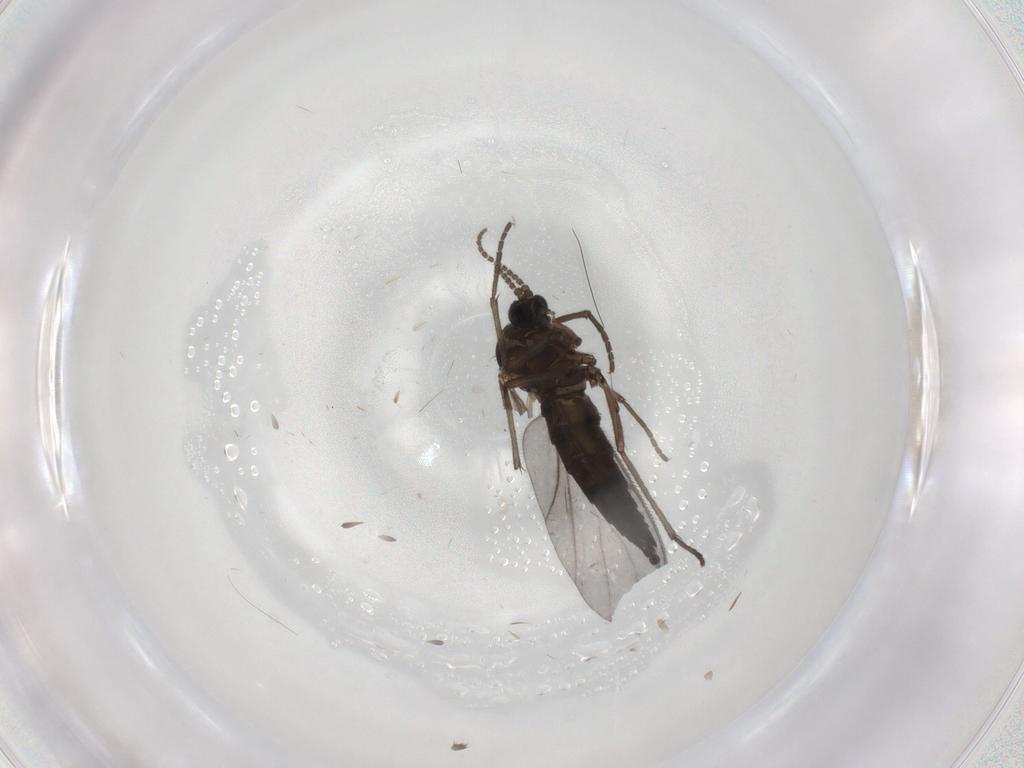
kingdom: Animalia
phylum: Arthropoda
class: Insecta
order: Diptera
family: Sciaridae
